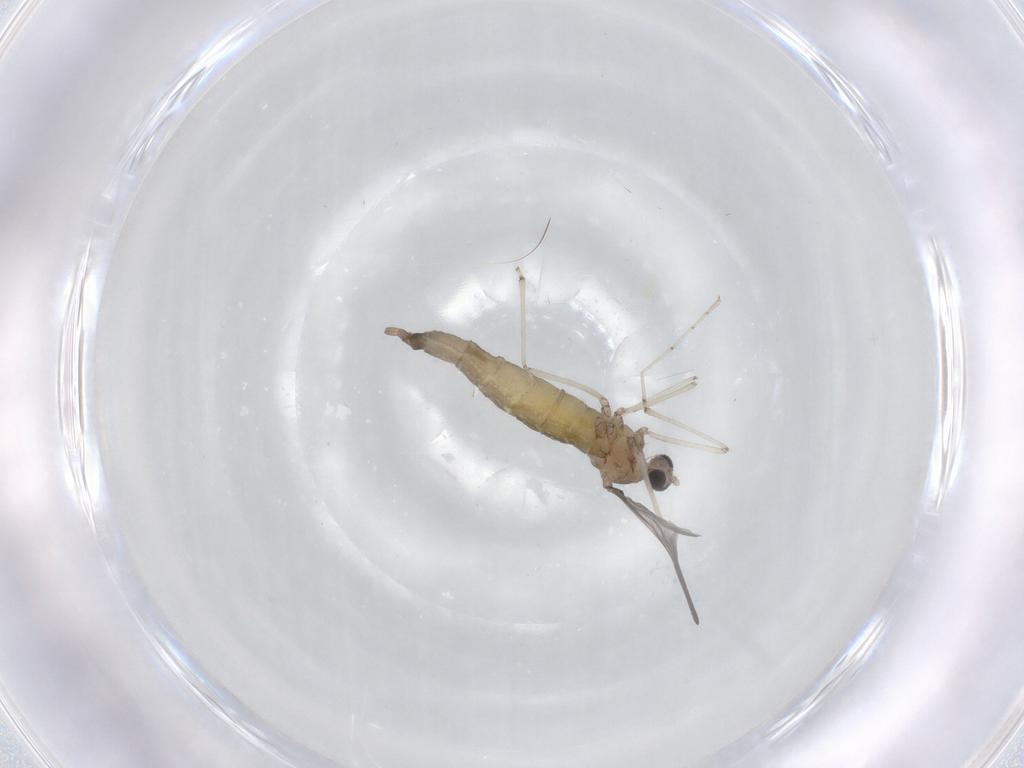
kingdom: Animalia
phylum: Arthropoda
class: Insecta
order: Diptera
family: Cecidomyiidae
